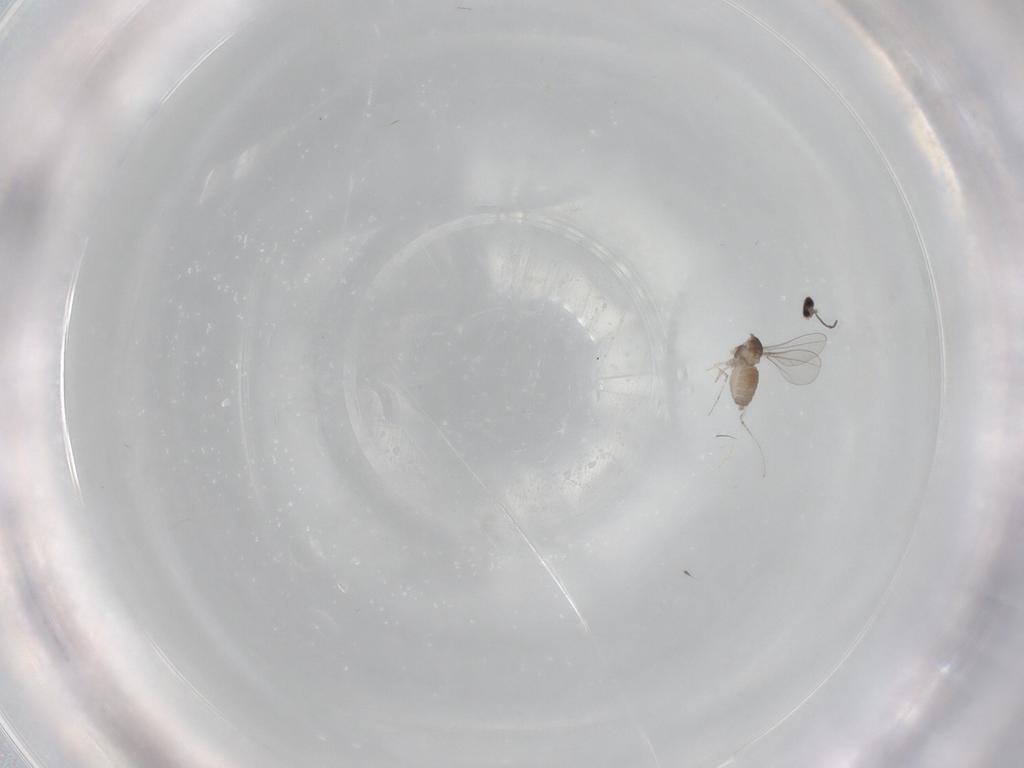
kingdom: Animalia
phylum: Arthropoda
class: Insecta
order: Diptera
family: Cecidomyiidae
